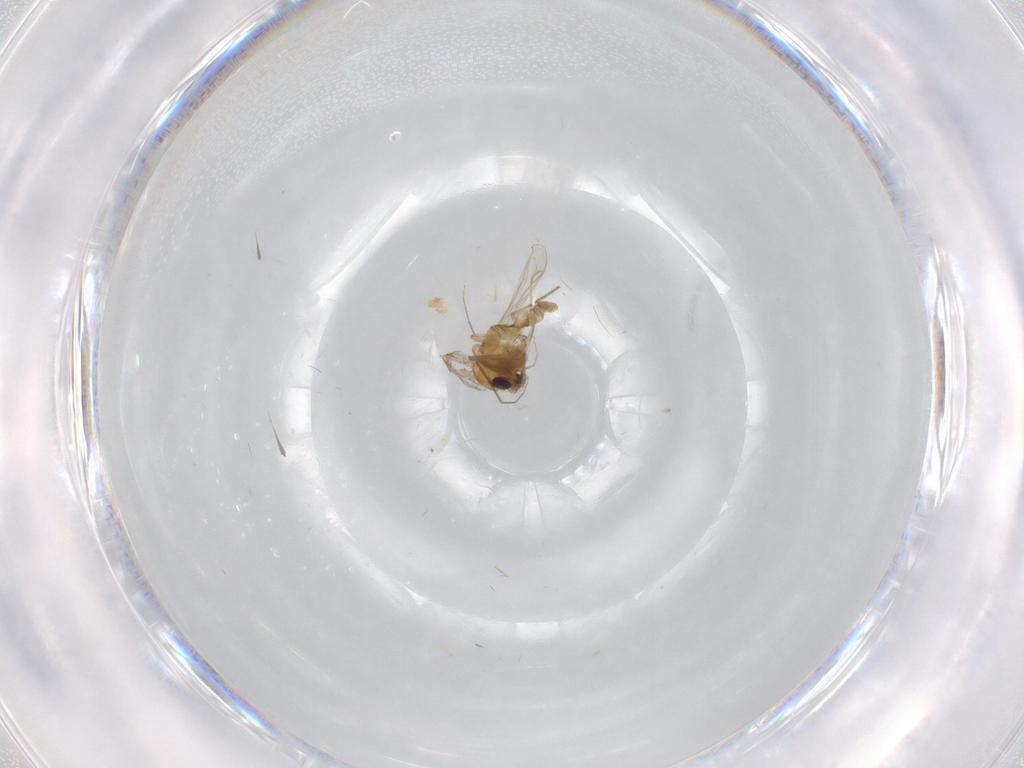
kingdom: Animalia
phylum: Arthropoda
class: Insecta
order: Diptera
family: Chironomidae
